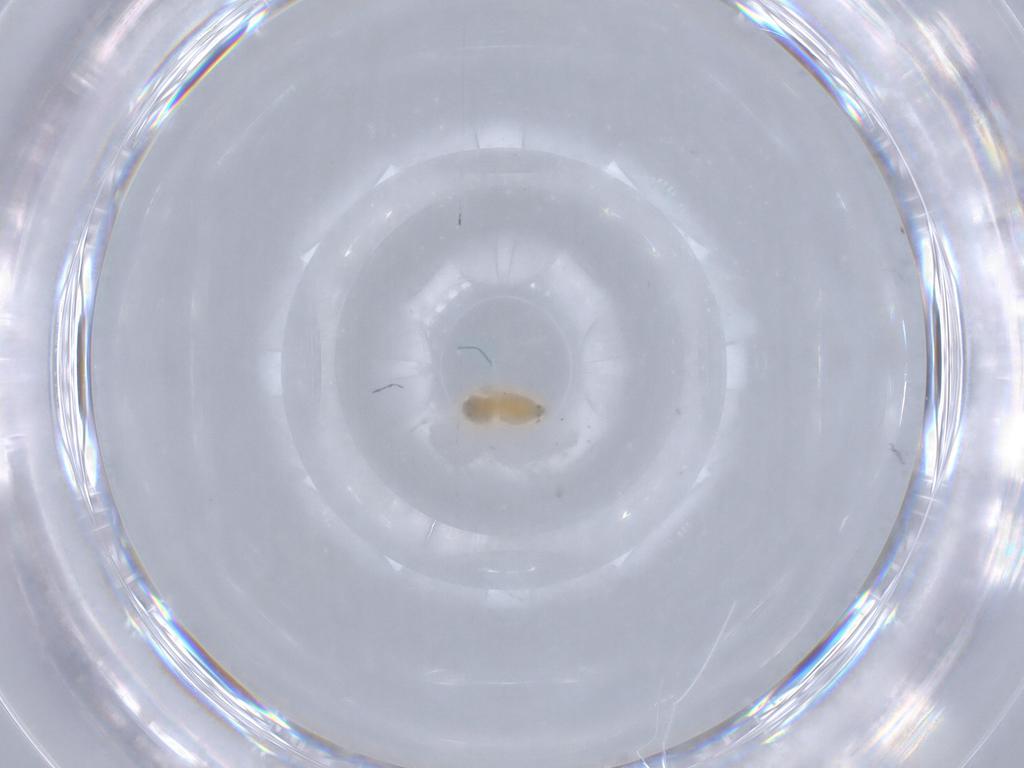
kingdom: Animalia
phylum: Arthropoda
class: Insecta
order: Hemiptera
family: Aleyrodidae
